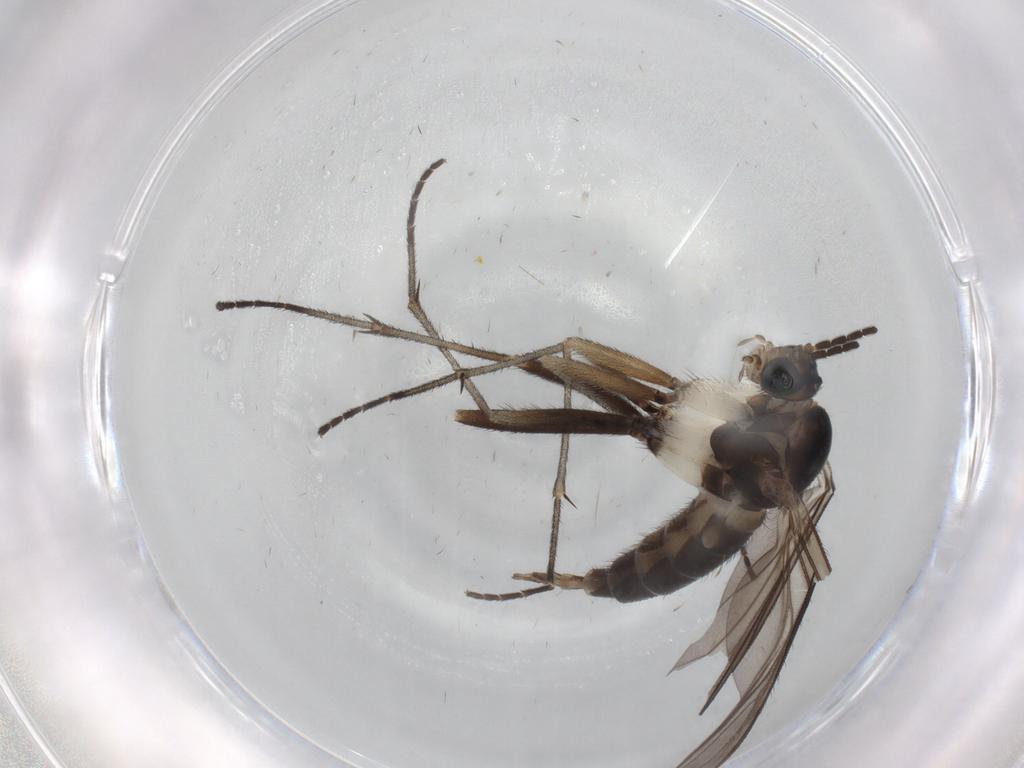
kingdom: Animalia
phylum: Arthropoda
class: Insecta
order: Diptera
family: Sciaridae
